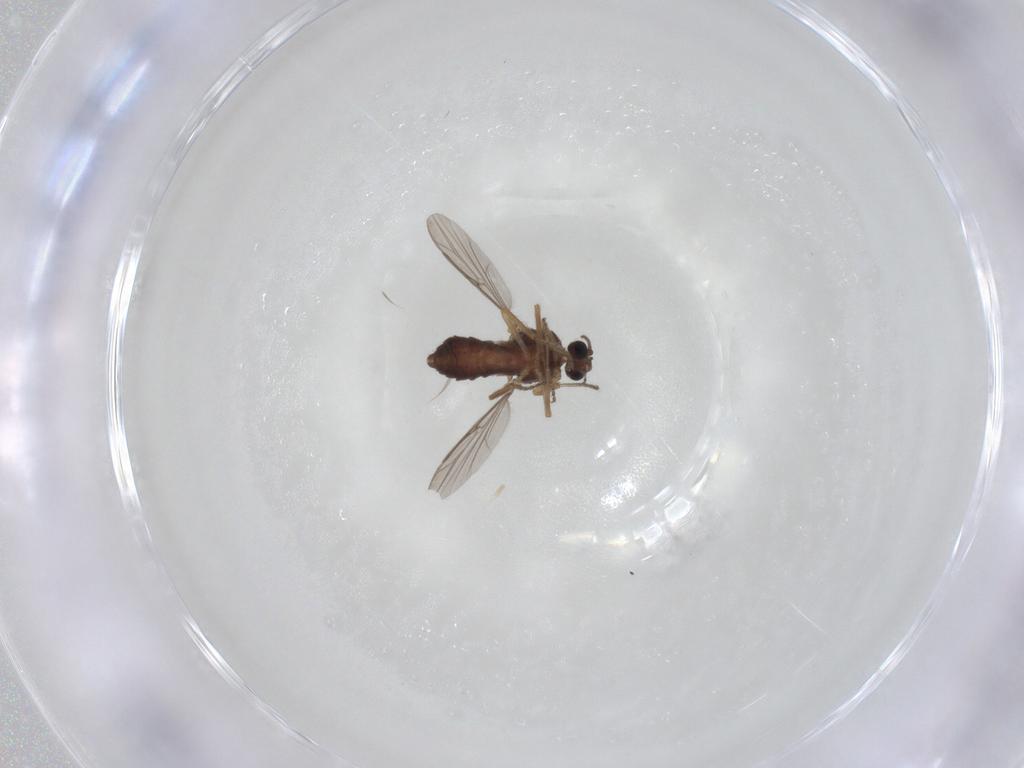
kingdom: Animalia
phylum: Arthropoda
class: Insecta
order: Diptera
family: Ceratopogonidae
